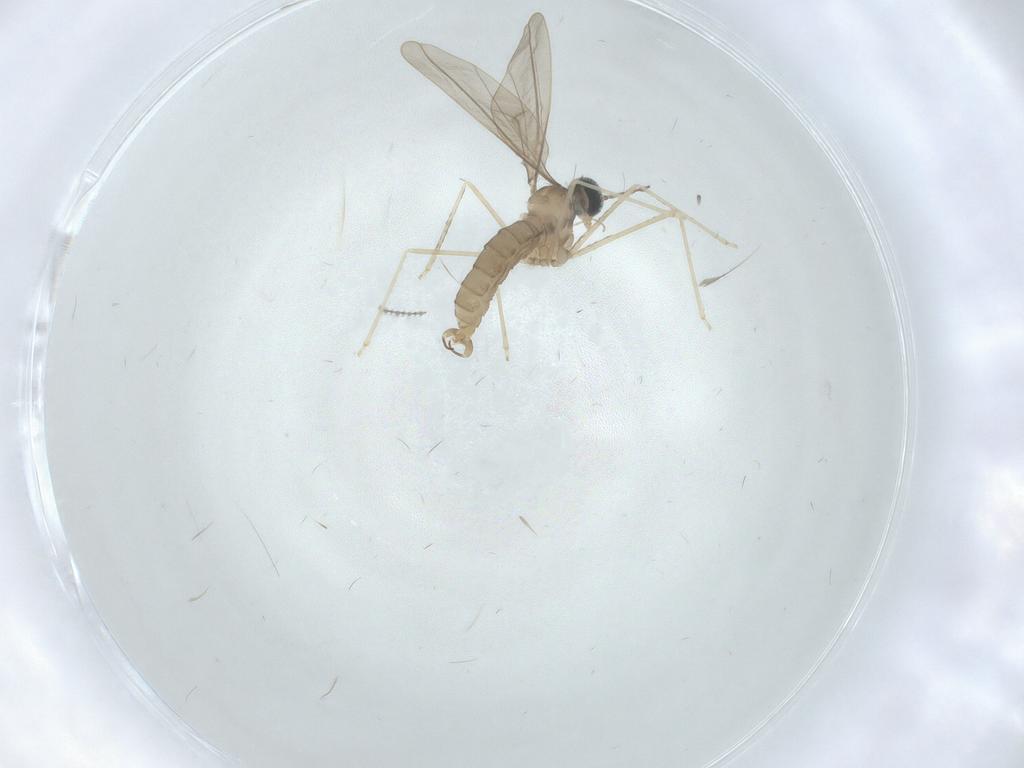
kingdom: Animalia
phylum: Arthropoda
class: Insecta
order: Diptera
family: Cecidomyiidae
